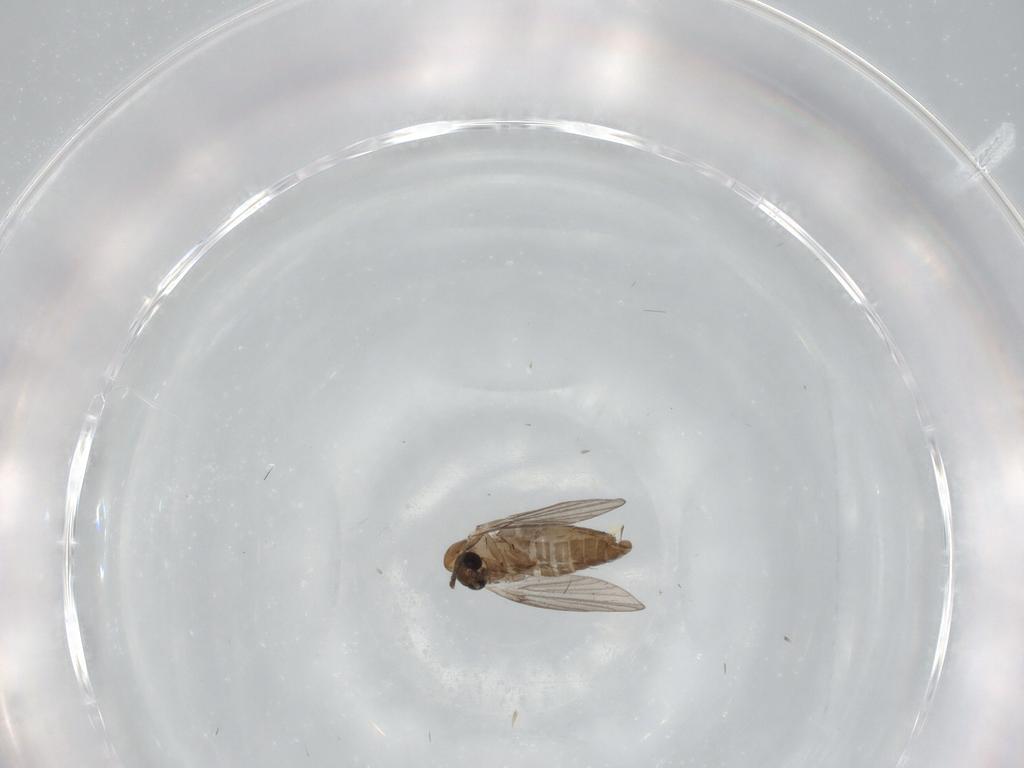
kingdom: Animalia
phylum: Arthropoda
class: Insecta
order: Diptera
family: Psychodidae
